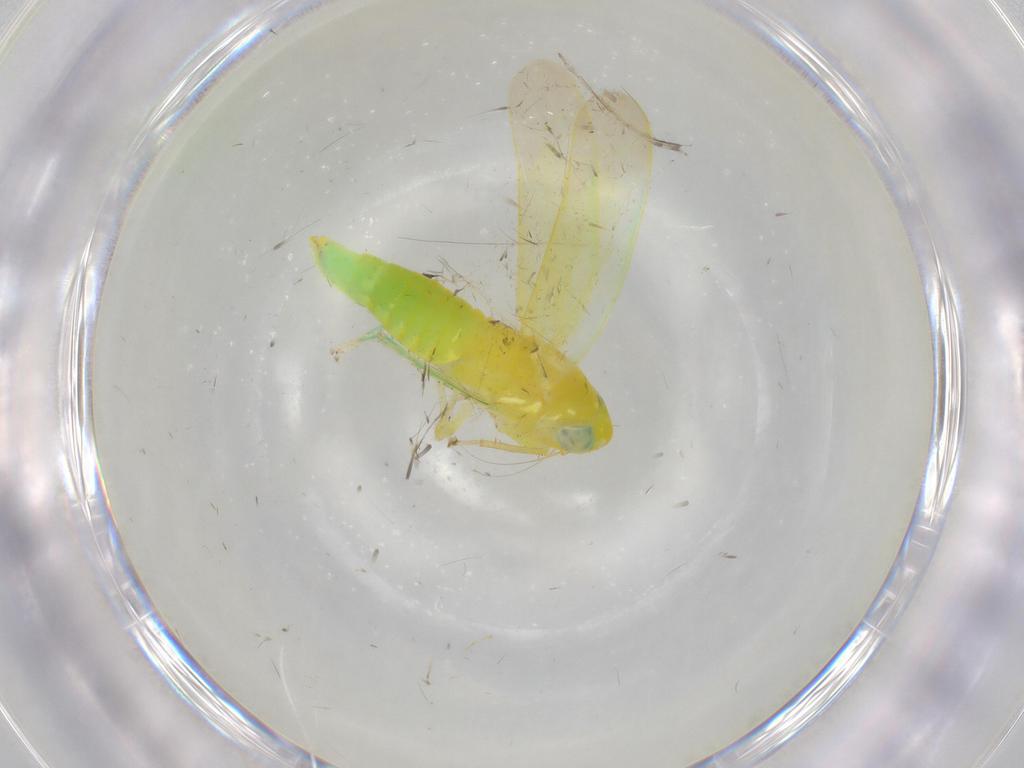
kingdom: Animalia
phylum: Arthropoda
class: Insecta
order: Hemiptera
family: Cicadellidae
